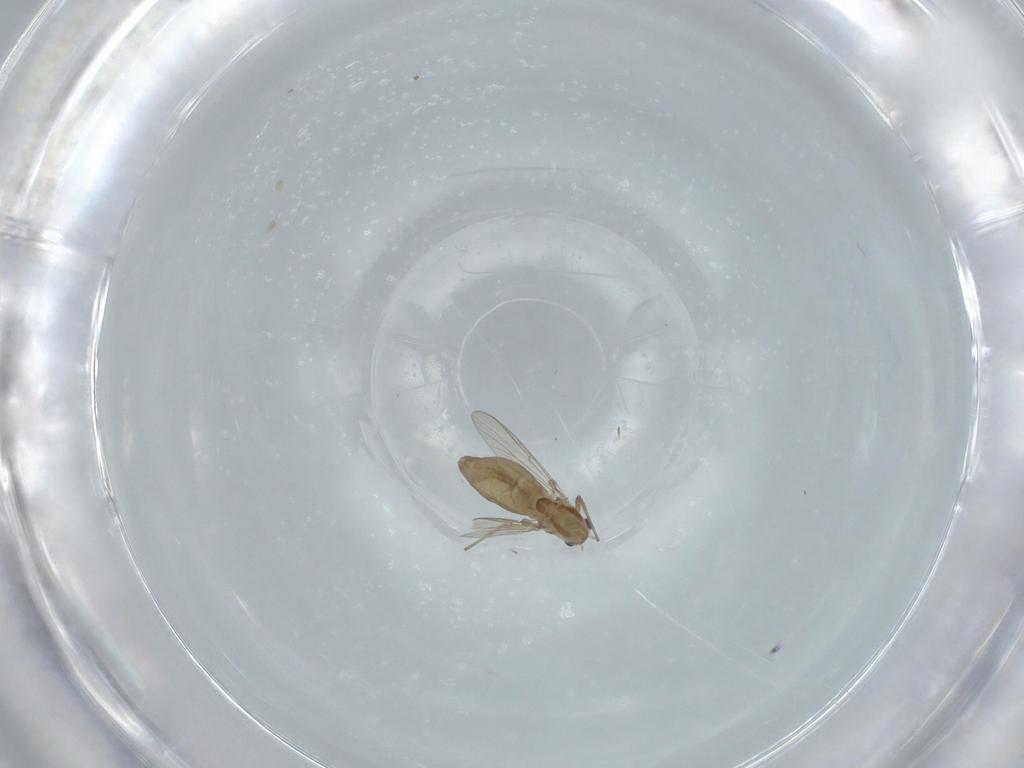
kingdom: Animalia
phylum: Arthropoda
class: Insecta
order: Diptera
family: Chironomidae
